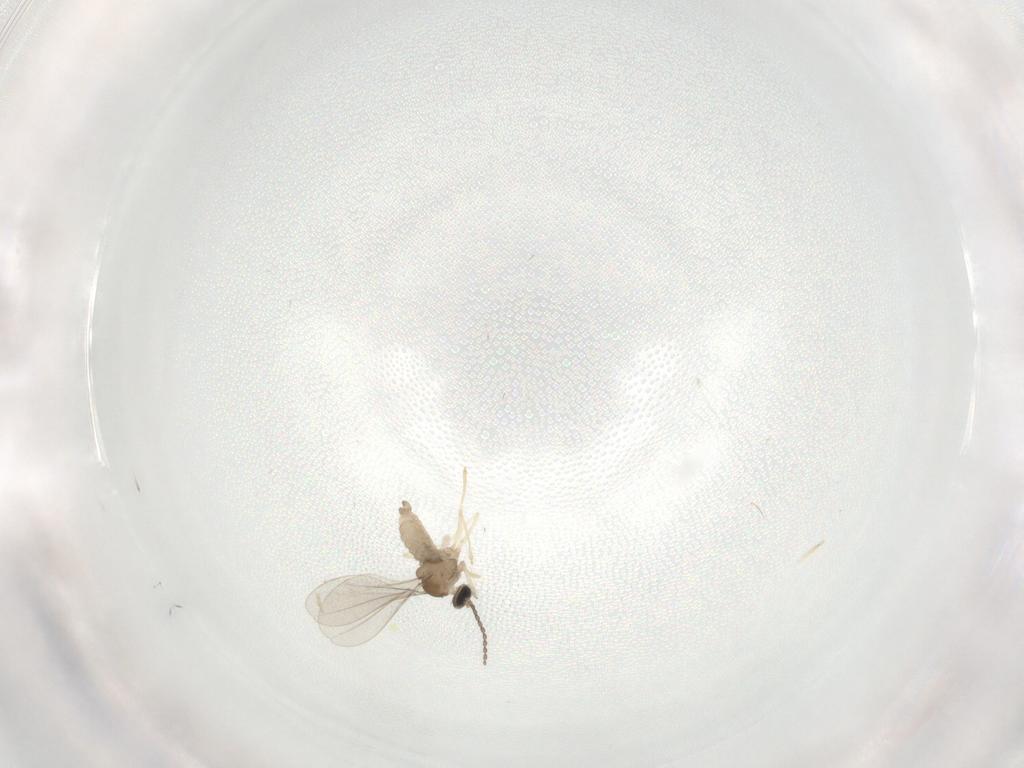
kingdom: Animalia
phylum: Arthropoda
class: Insecta
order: Diptera
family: Cecidomyiidae
